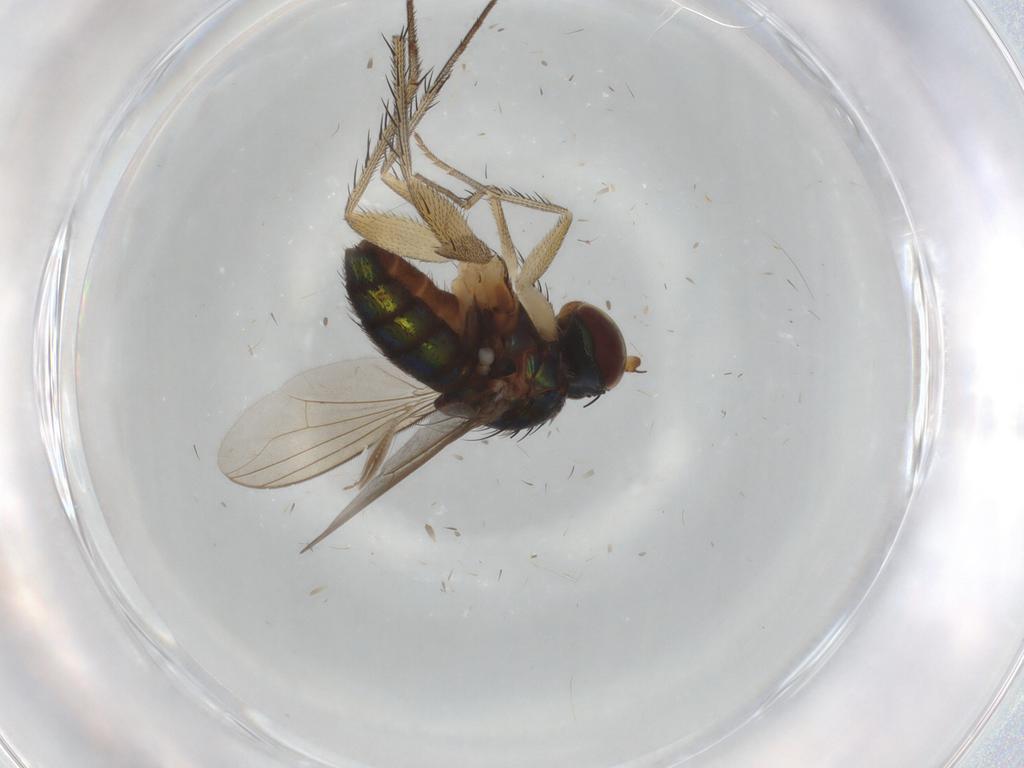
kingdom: Animalia
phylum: Arthropoda
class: Insecta
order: Diptera
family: Dolichopodidae
